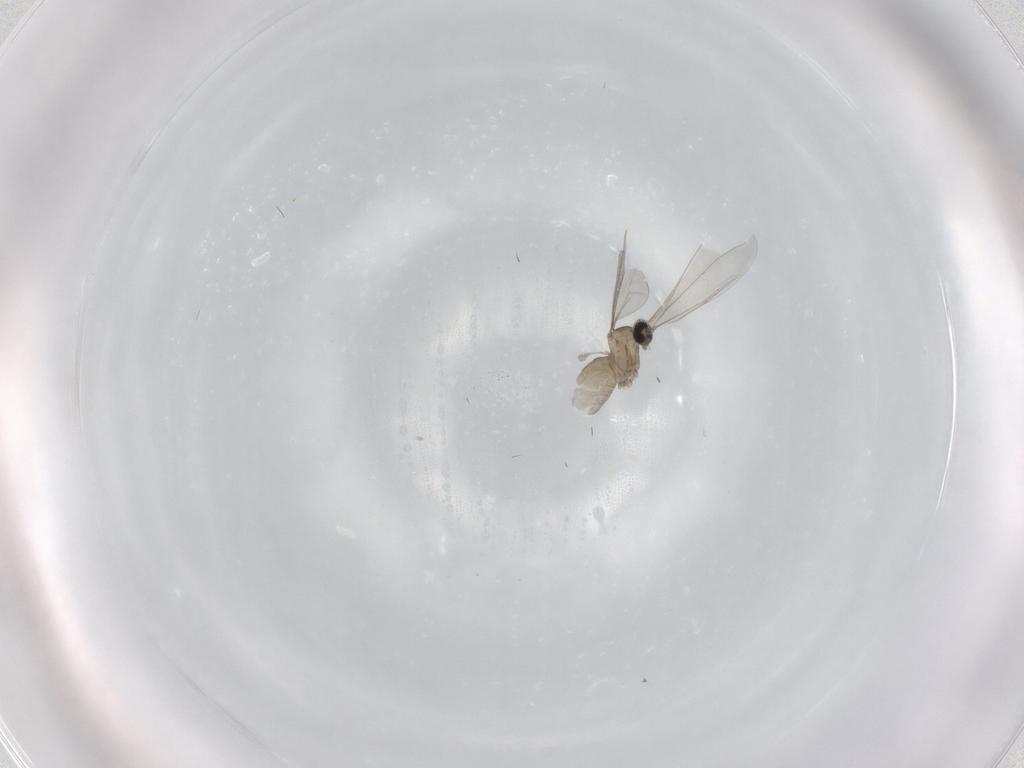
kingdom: Animalia
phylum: Arthropoda
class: Insecta
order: Diptera
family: Cecidomyiidae
